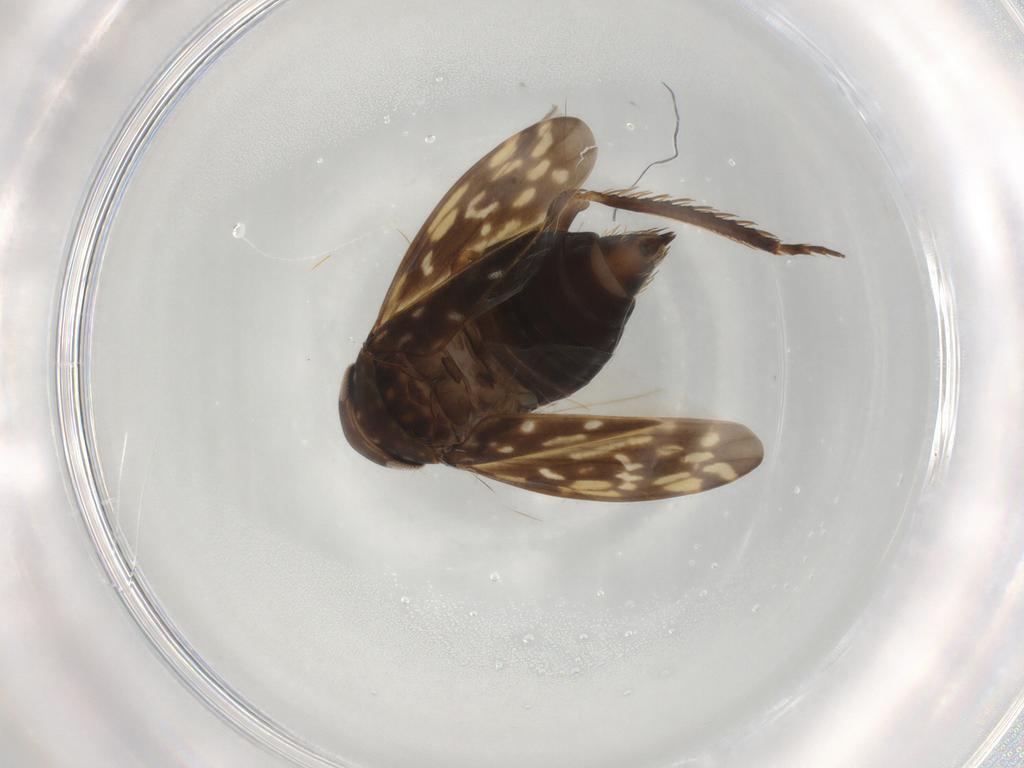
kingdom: Animalia
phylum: Arthropoda
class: Insecta
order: Hemiptera
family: Cicadellidae
